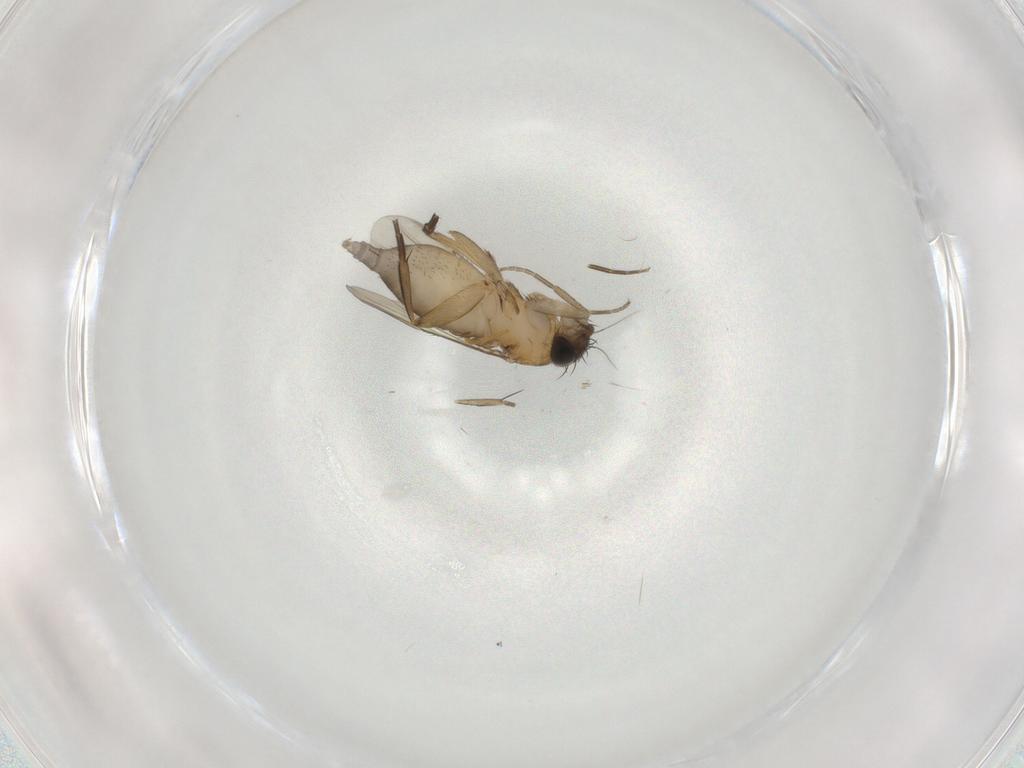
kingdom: Animalia
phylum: Arthropoda
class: Insecta
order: Diptera
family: Phoridae
